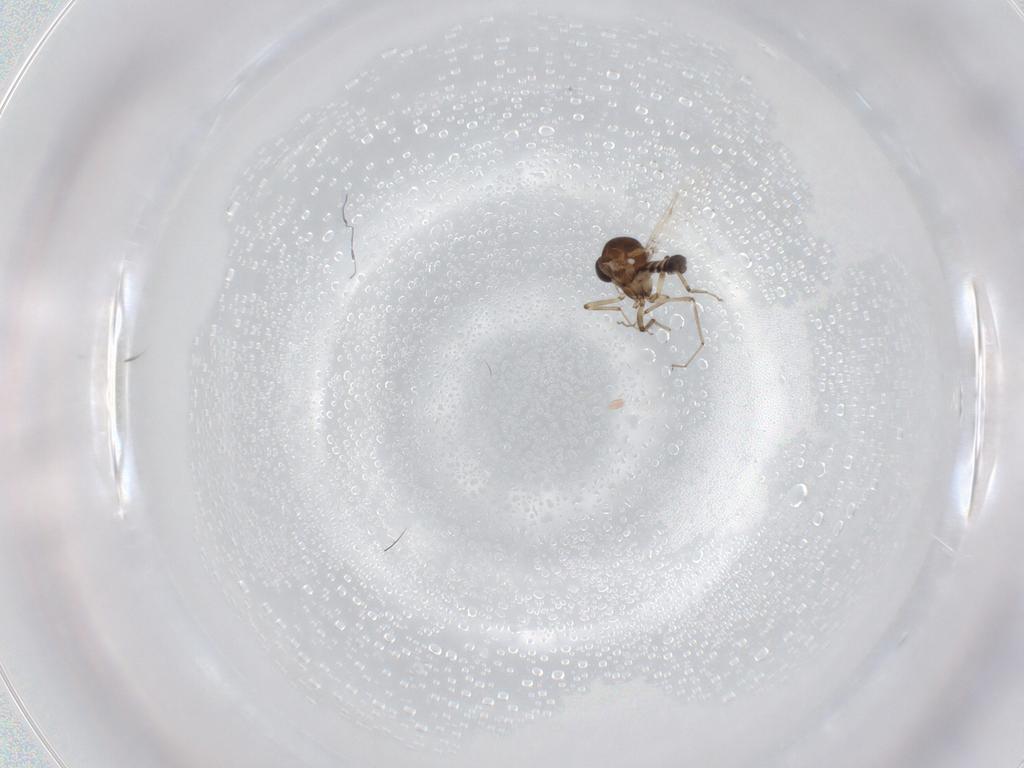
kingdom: Animalia
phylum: Arthropoda
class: Insecta
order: Diptera
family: Ceratopogonidae
